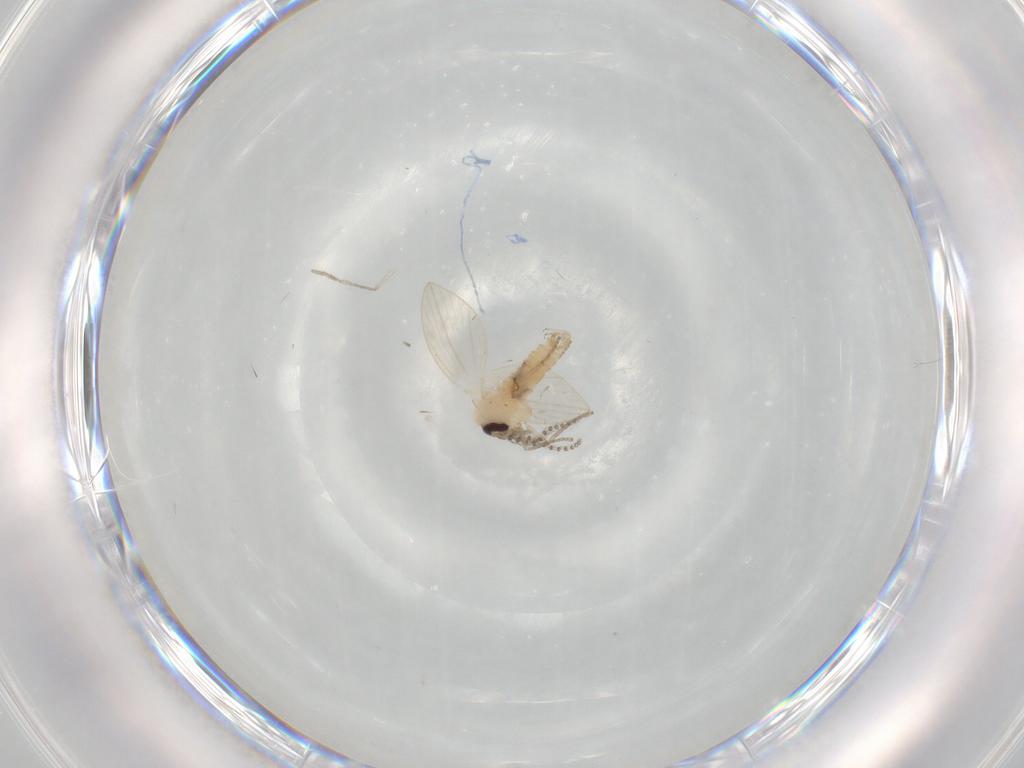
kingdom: Animalia
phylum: Arthropoda
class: Insecta
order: Diptera
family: Psychodidae
